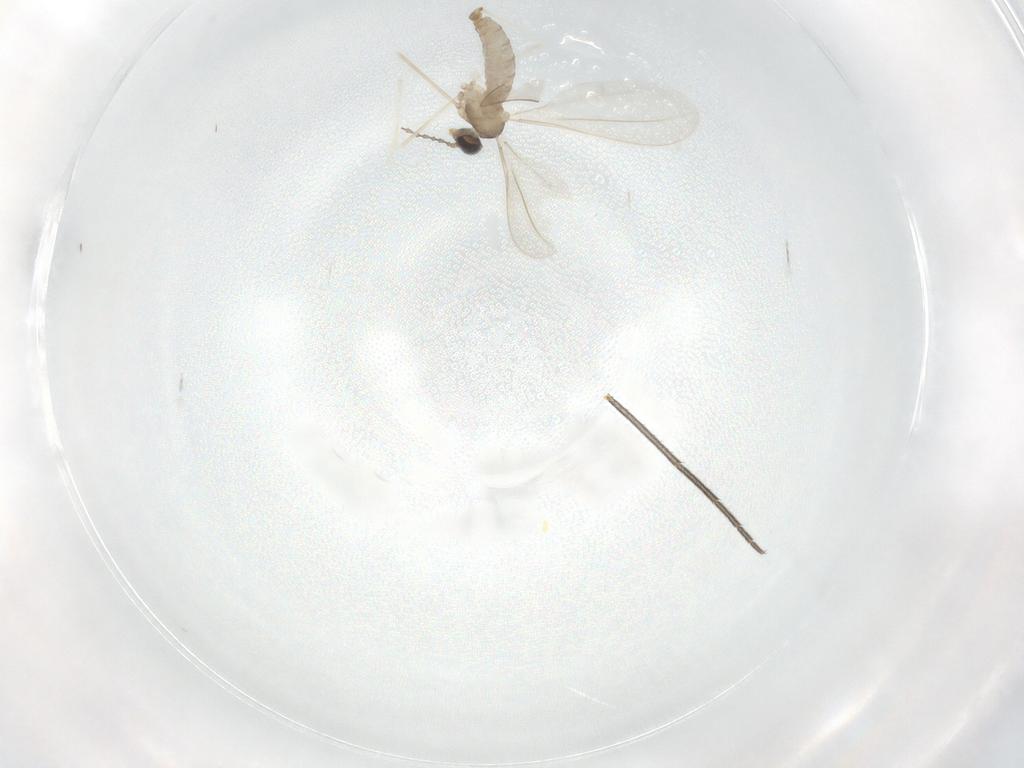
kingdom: Animalia
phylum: Arthropoda
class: Insecta
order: Diptera
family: Cecidomyiidae
